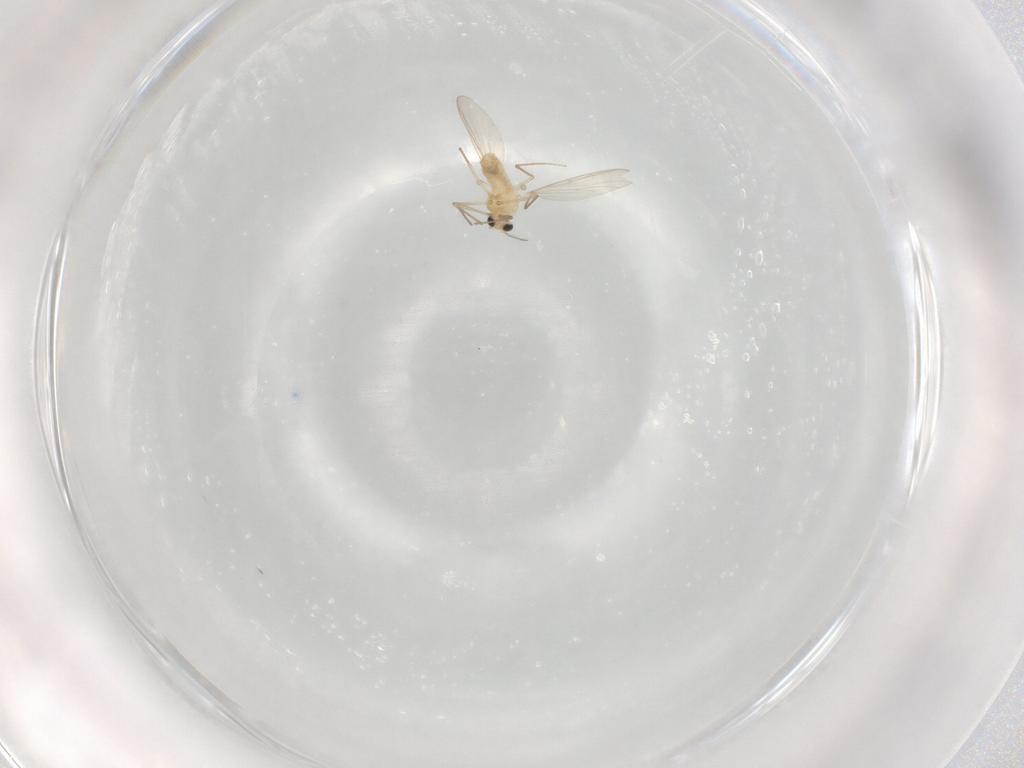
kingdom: Animalia
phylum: Arthropoda
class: Insecta
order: Diptera
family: Chironomidae
